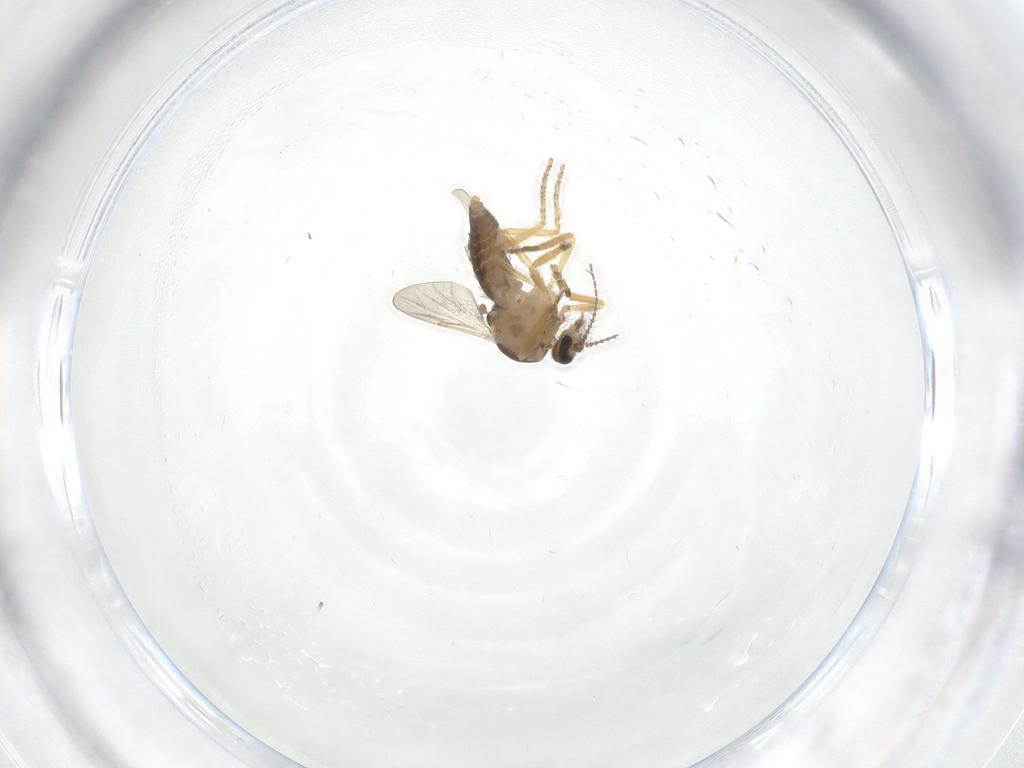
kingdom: Animalia
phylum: Arthropoda
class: Insecta
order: Diptera
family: Ceratopogonidae
